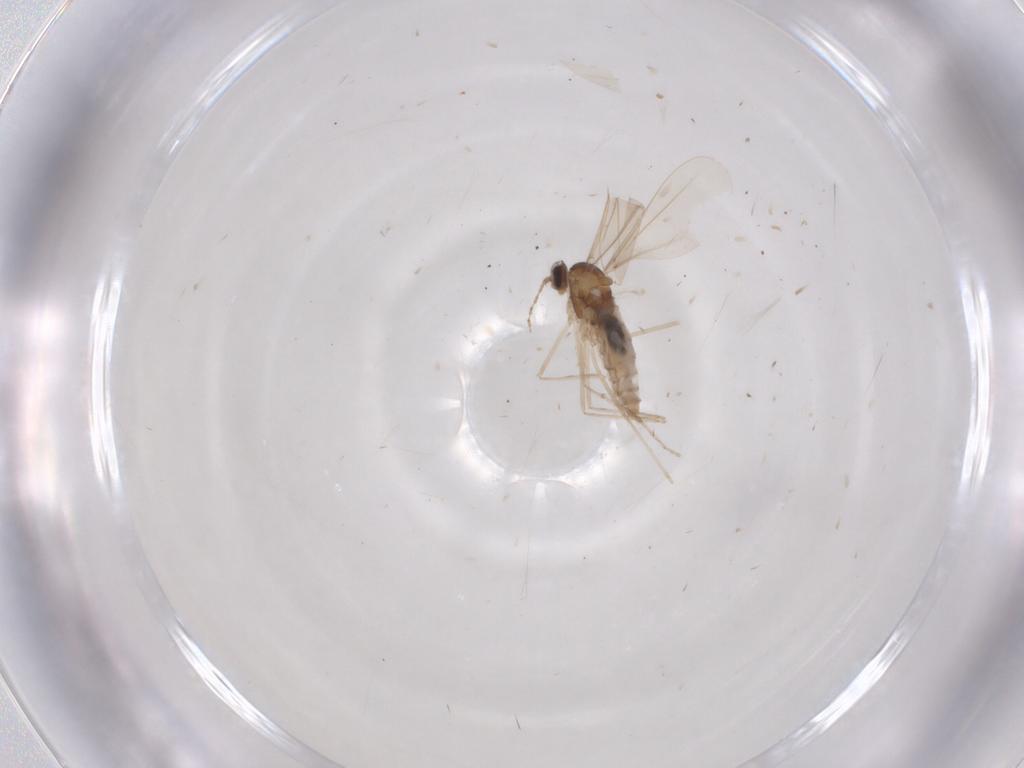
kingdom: Animalia
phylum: Arthropoda
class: Insecta
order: Diptera
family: Cecidomyiidae
